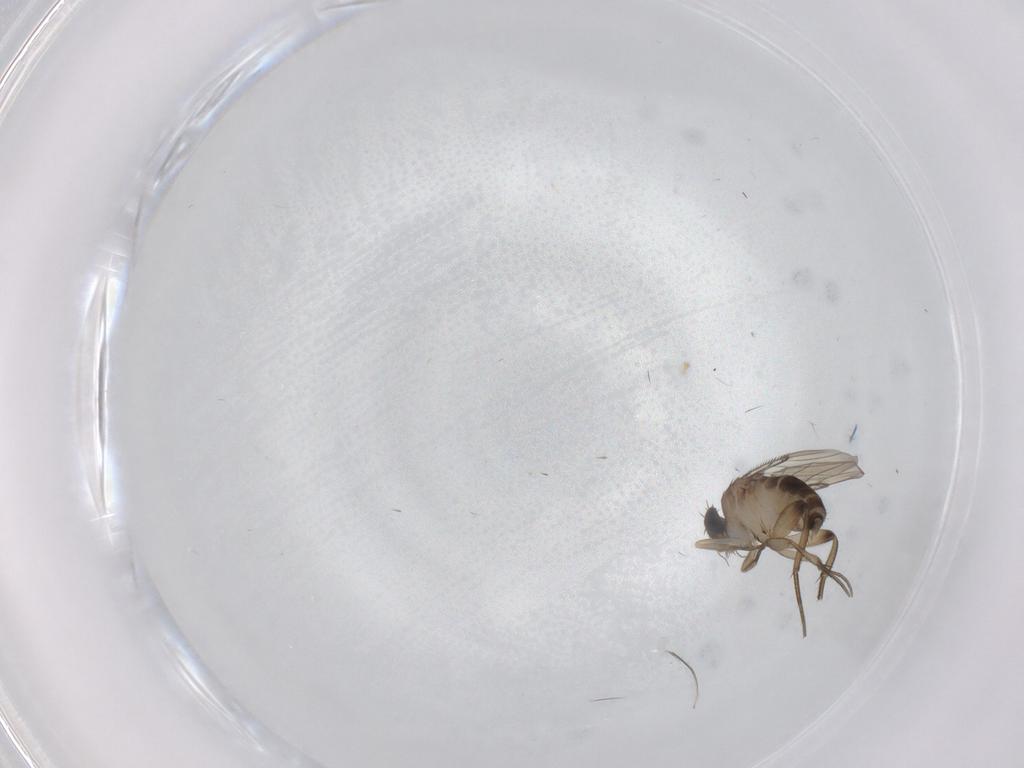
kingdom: Animalia
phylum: Arthropoda
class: Insecta
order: Diptera
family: Phoridae
